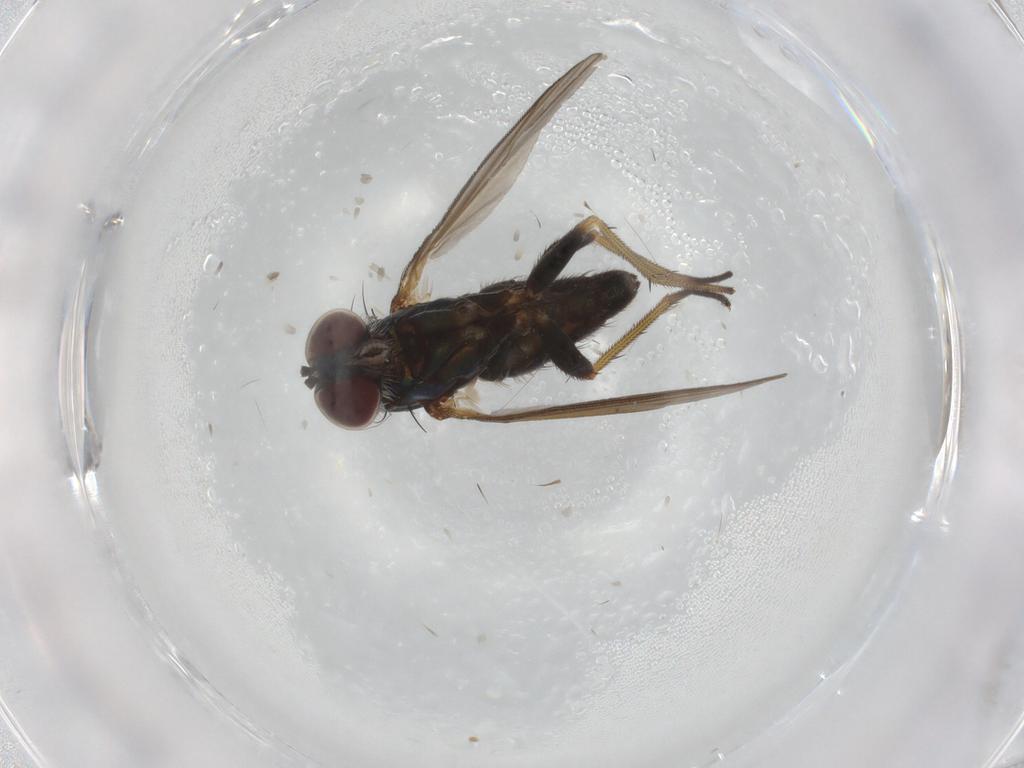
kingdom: Animalia
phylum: Arthropoda
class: Insecta
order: Diptera
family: Dolichopodidae
